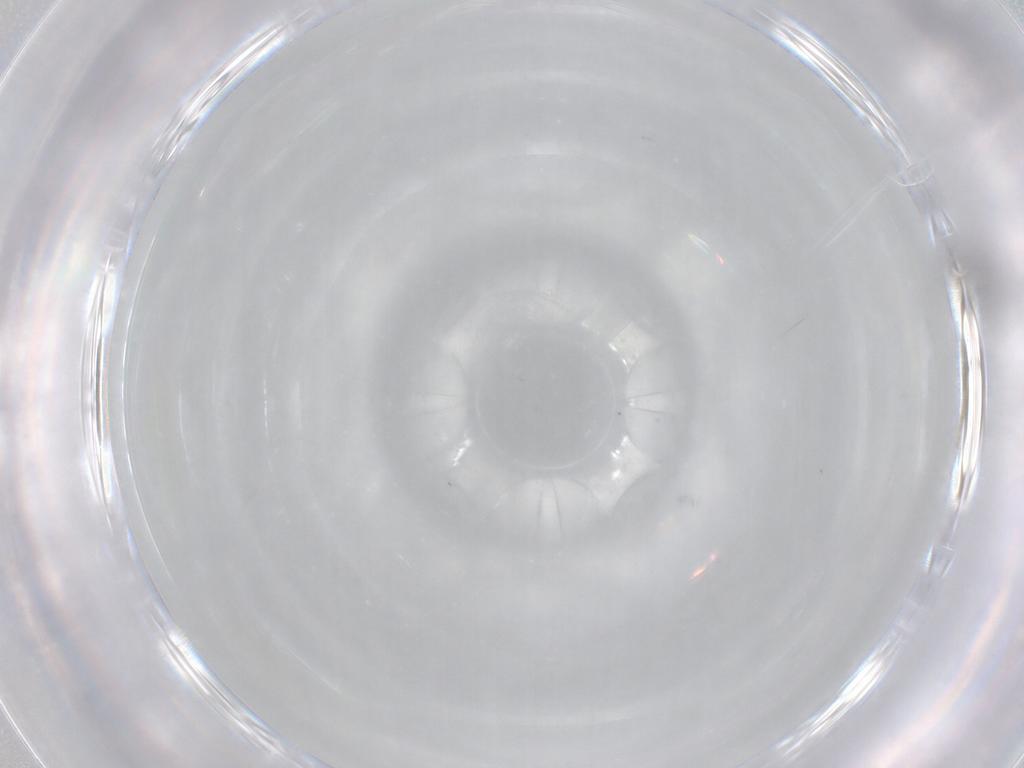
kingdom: Animalia
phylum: Arthropoda
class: Insecta
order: Hymenoptera
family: Scelionidae
